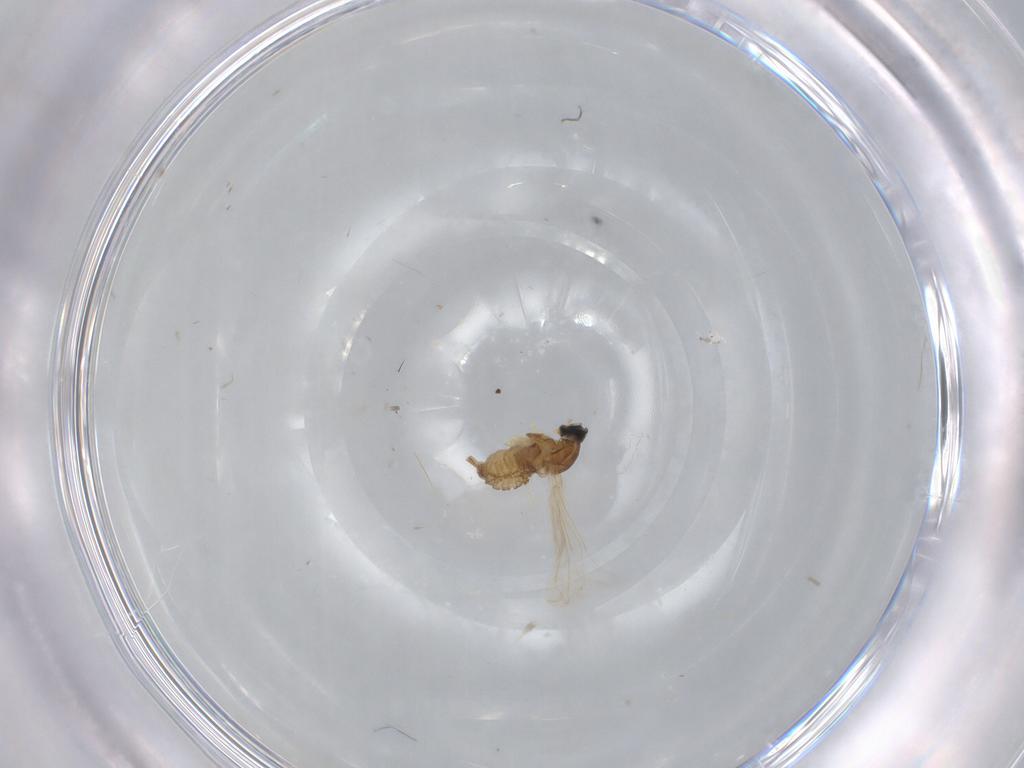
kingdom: Animalia
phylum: Arthropoda
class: Insecta
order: Diptera
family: Syrphidae
